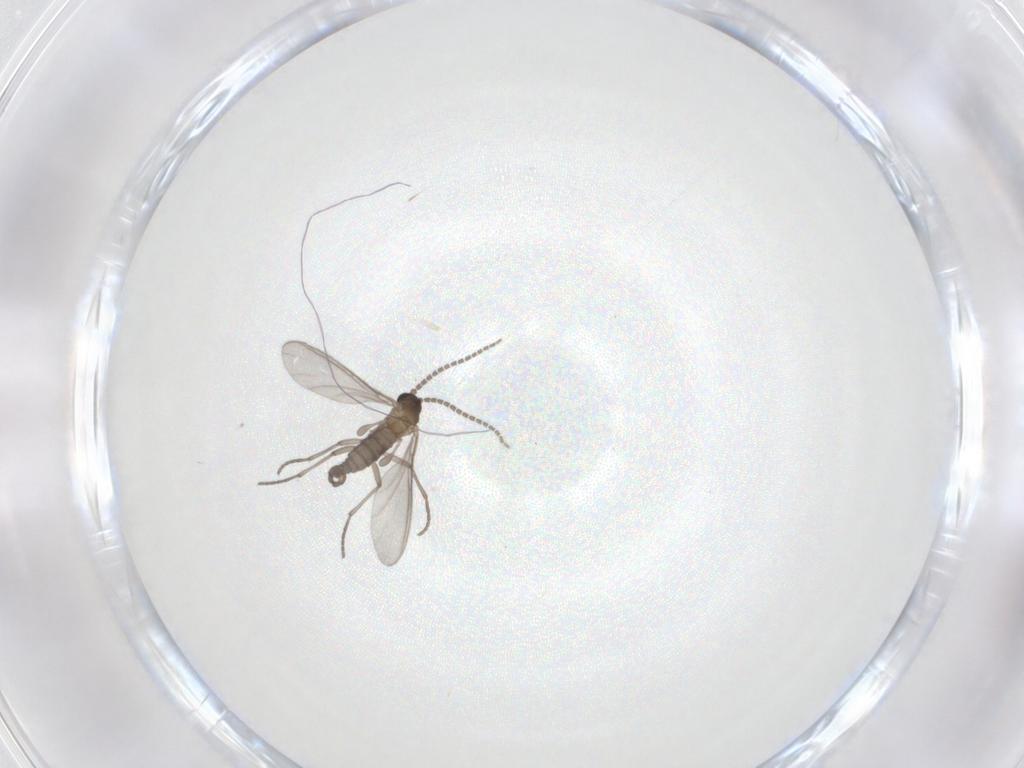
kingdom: Animalia
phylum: Arthropoda
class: Insecta
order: Diptera
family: Sciaridae
